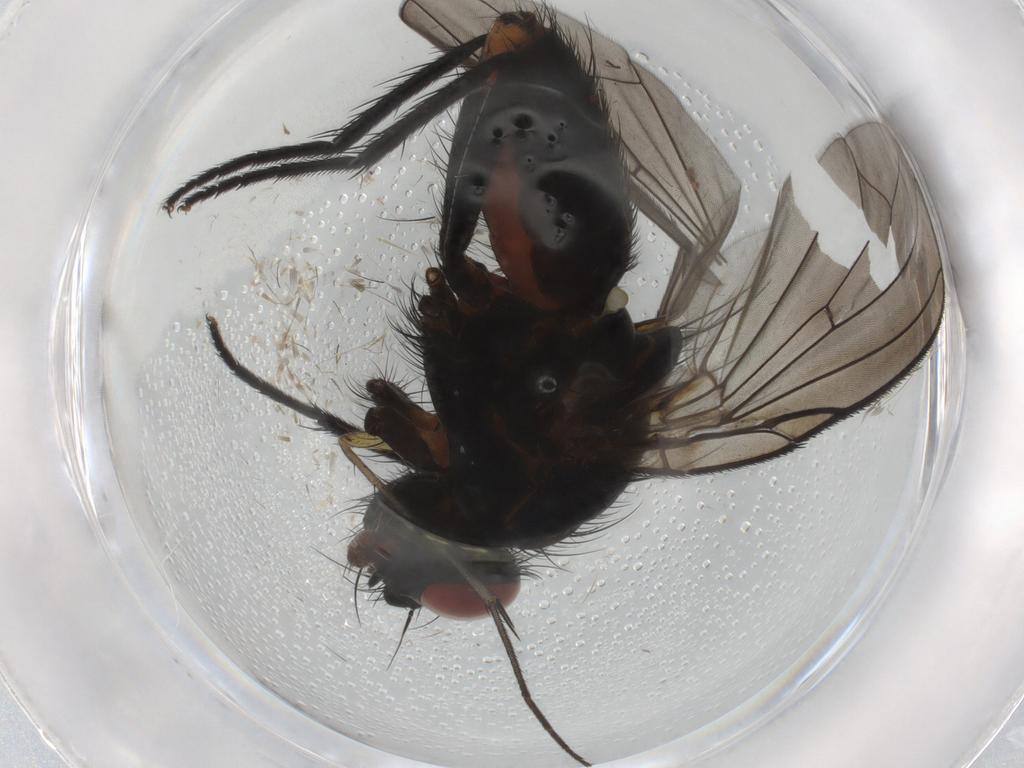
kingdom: Animalia
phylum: Arthropoda
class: Insecta
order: Diptera
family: Anthomyiidae
